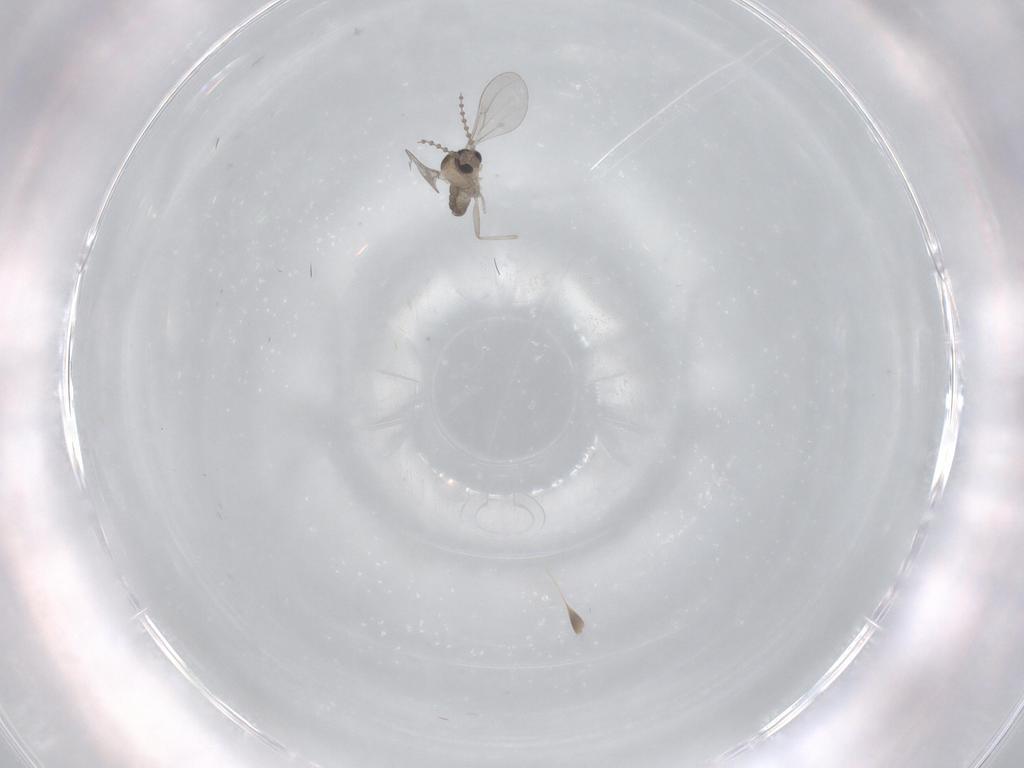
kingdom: Animalia
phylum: Arthropoda
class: Insecta
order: Diptera
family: Cecidomyiidae
